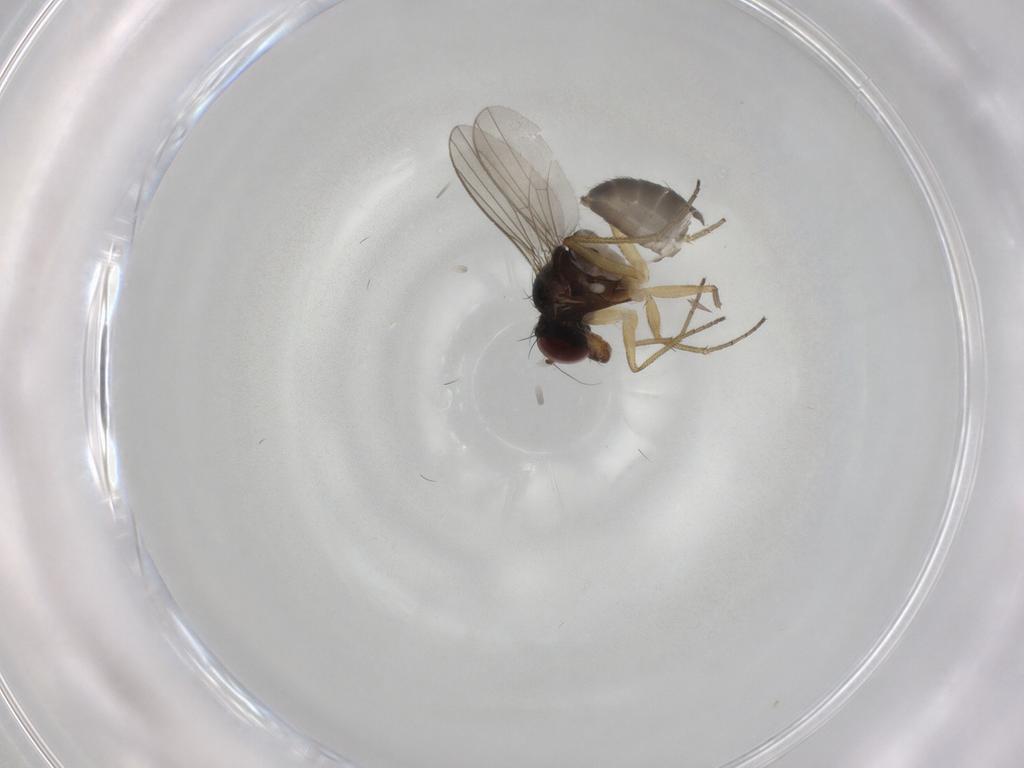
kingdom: Animalia
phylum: Arthropoda
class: Insecta
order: Diptera
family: Dolichopodidae
